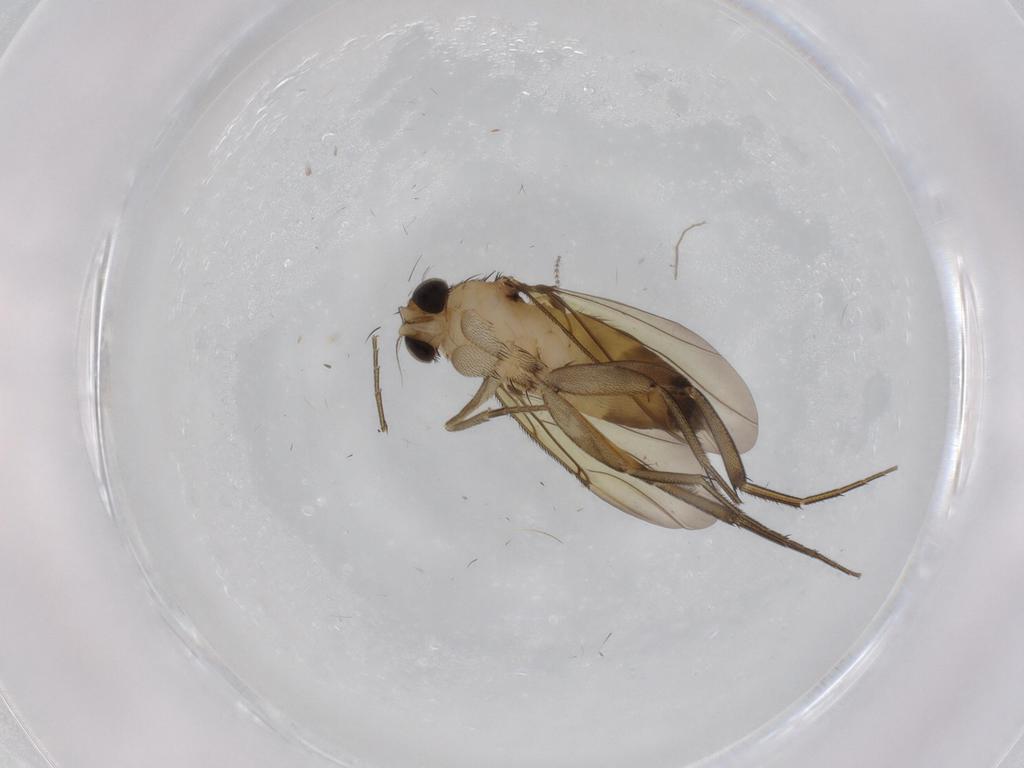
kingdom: Animalia
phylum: Arthropoda
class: Insecta
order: Diptera
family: Cecidomyiidae
